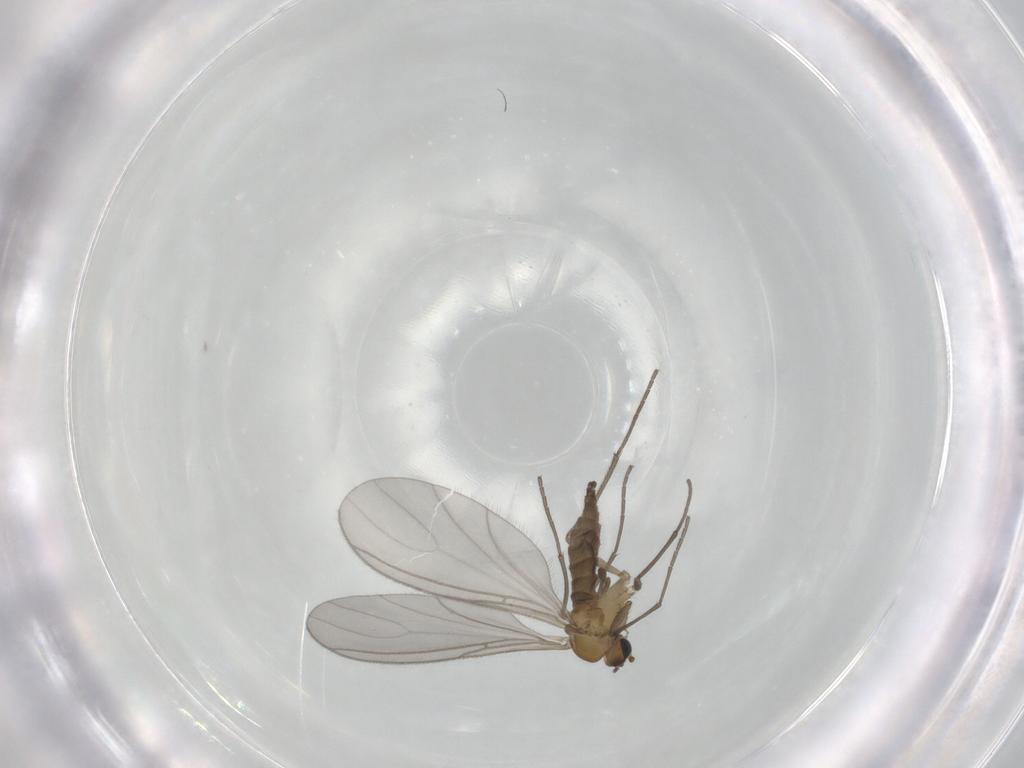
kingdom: Animalia
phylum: Arthropoda
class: Insecta
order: Diptera
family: Sciaridae
